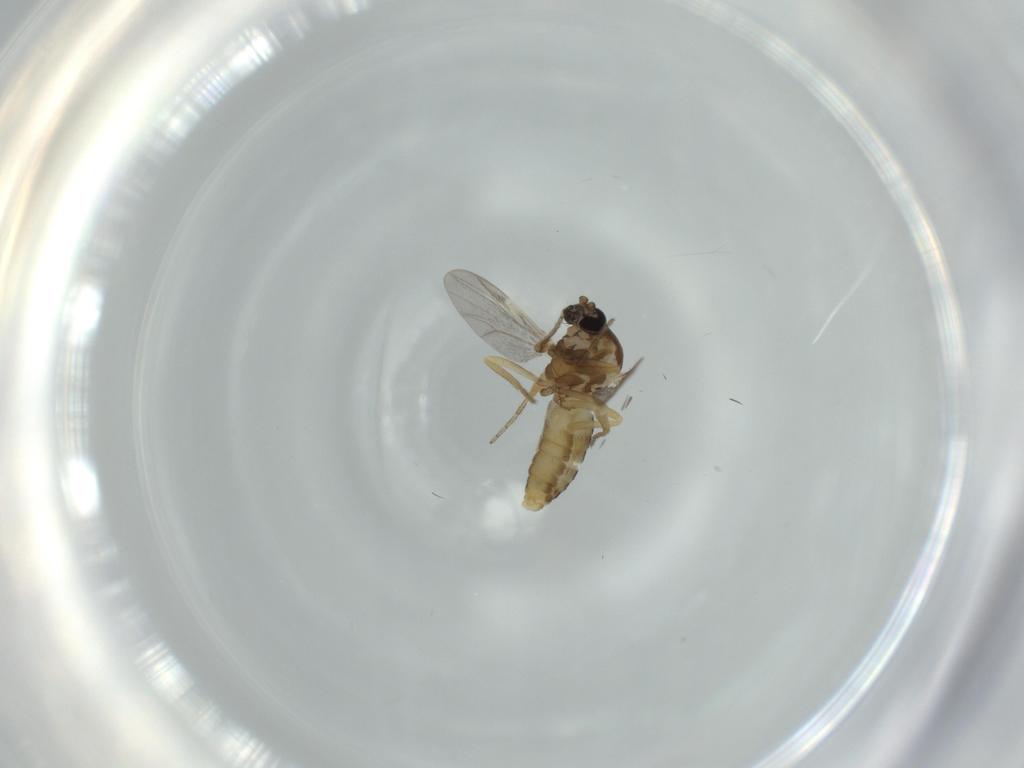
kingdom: Animalia
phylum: Arthropoda
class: Insecta
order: Diptera
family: Ceratopogonidae
